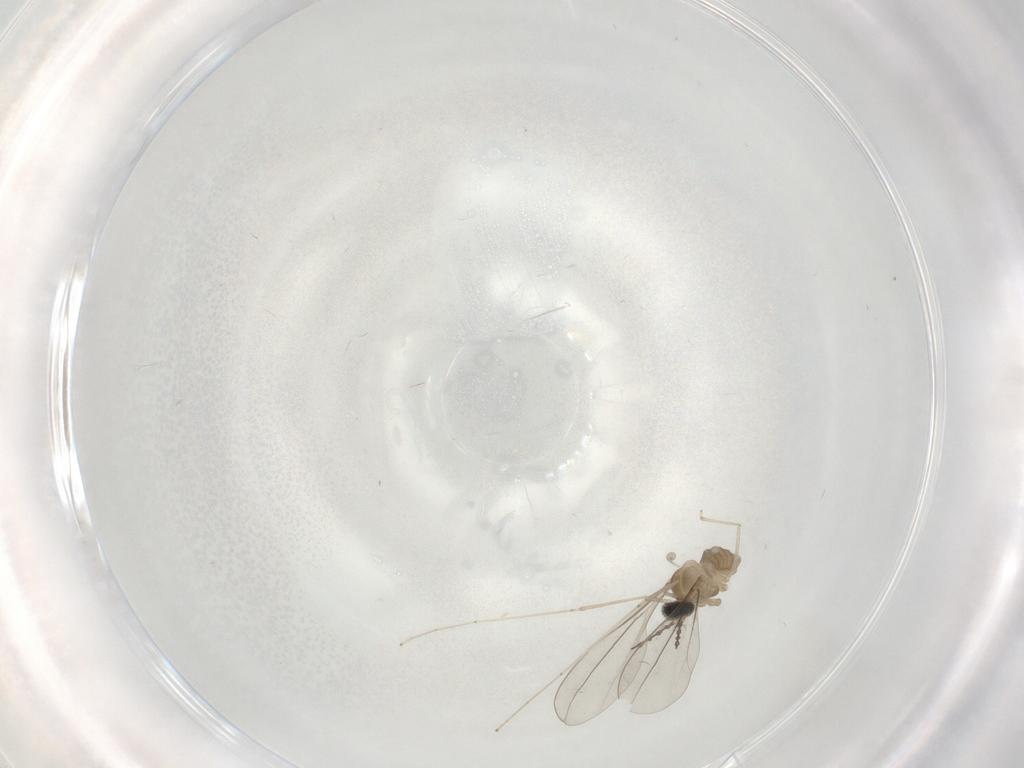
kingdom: Animalia
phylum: Arthropoda
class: Insecta
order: Diptera
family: Cecidomyiidae
